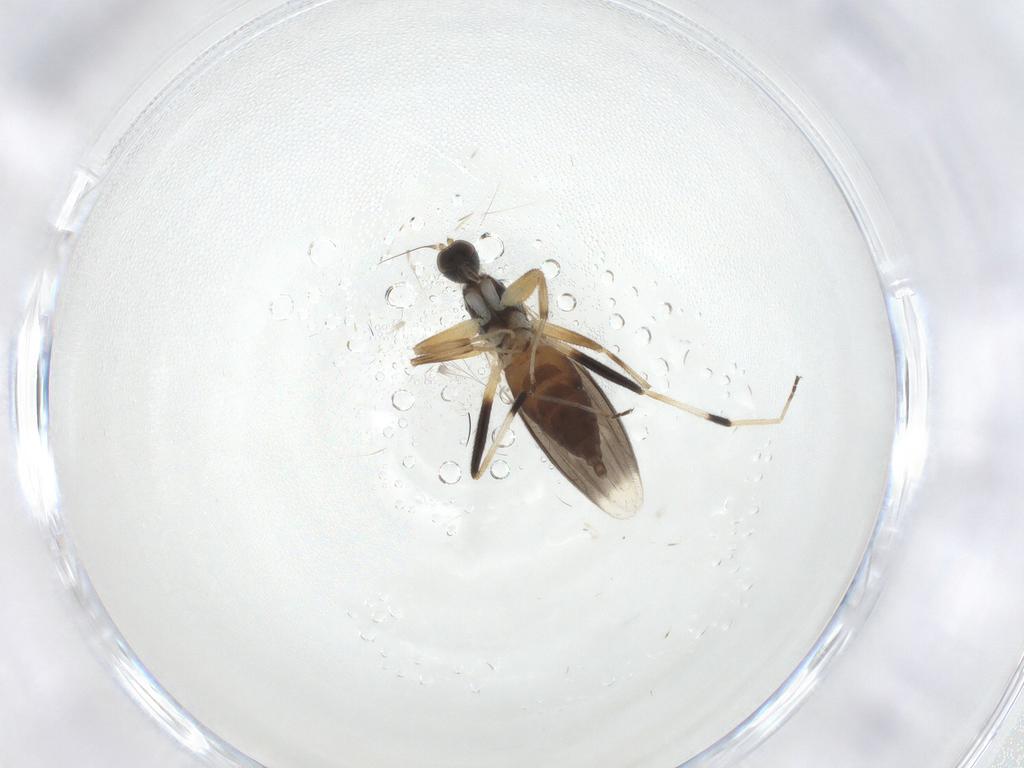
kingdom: Animalia
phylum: Arthropoda
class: Insecta
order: Diptera
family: Hybotidae
